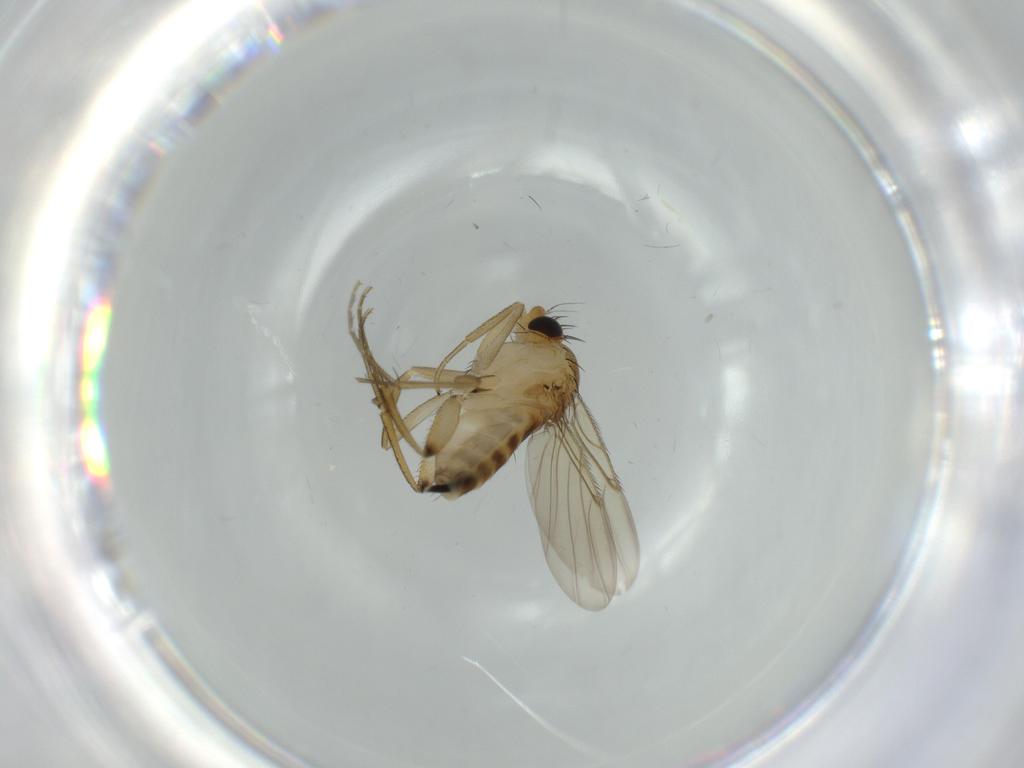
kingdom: Animalia
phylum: Arthropoda
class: Insecta
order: Diptera
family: Phoridae
